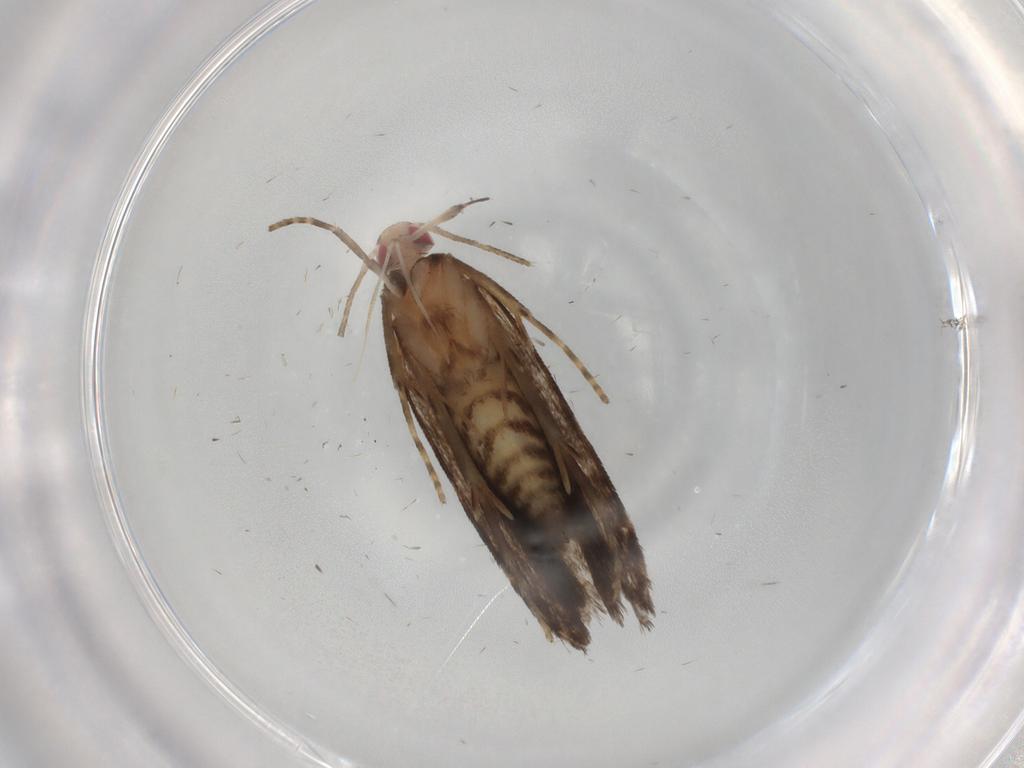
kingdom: Animalia
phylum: Arthropoda
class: Insecta
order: Lepidoptera
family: Gelechiidae
